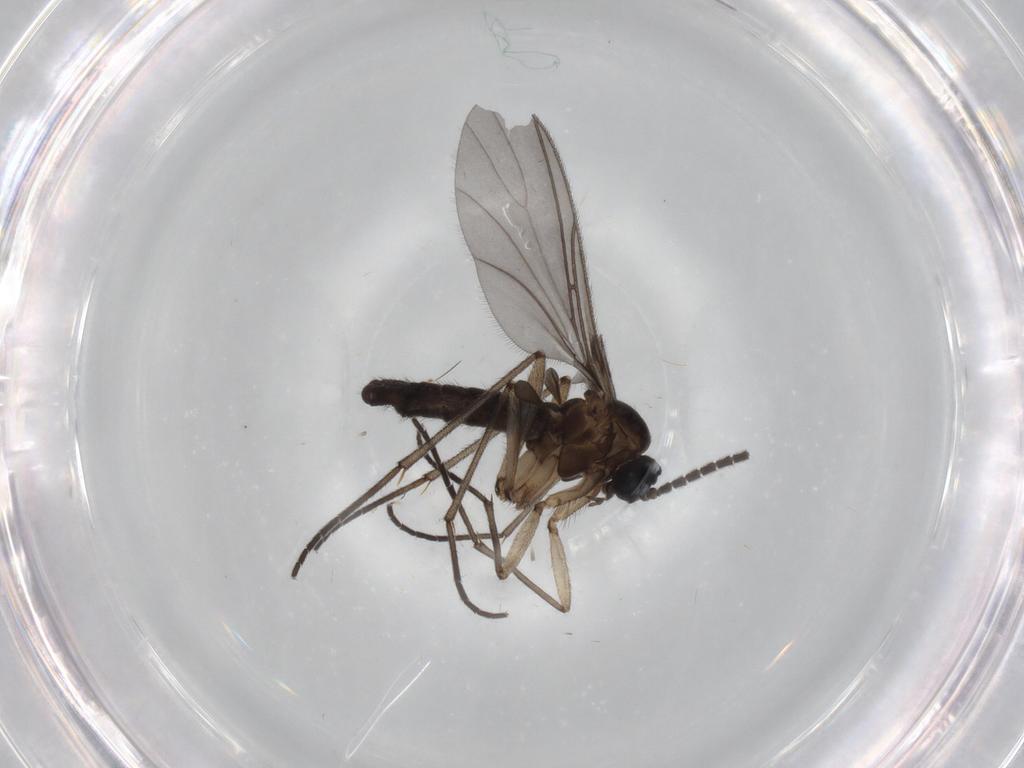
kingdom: Animalia
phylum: Arthropoda
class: Insecta
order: Diptera
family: Sciaridae
